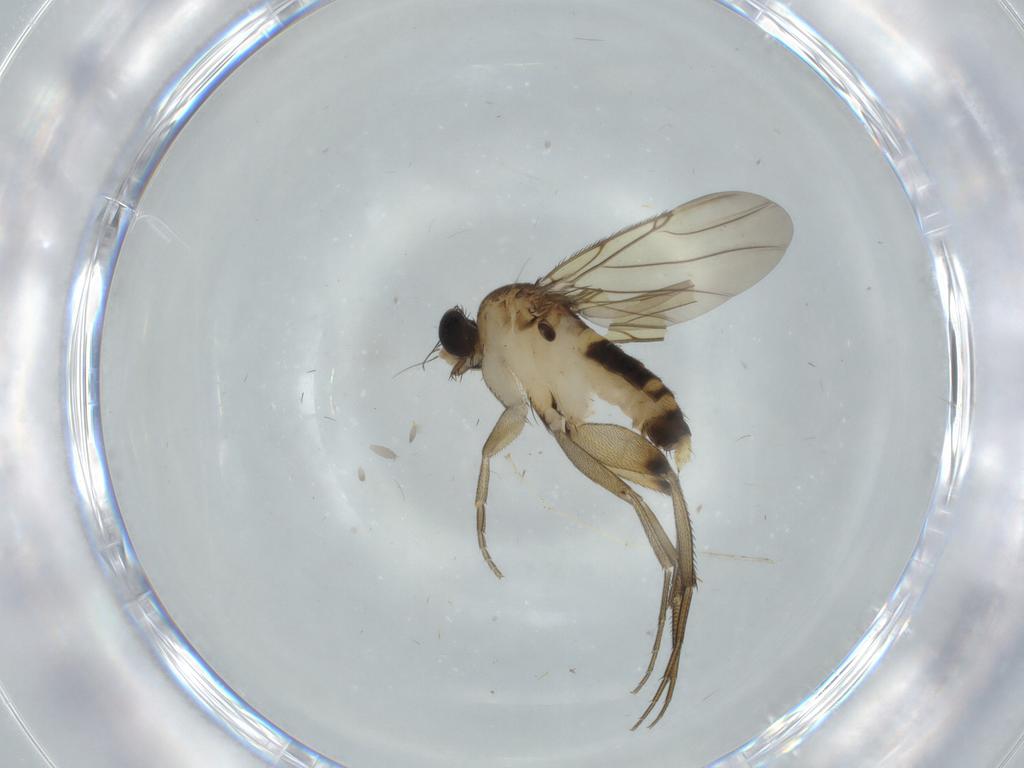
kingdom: Animalia
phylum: Arthropoda
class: Insecta
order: Diptera
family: Phoridae
